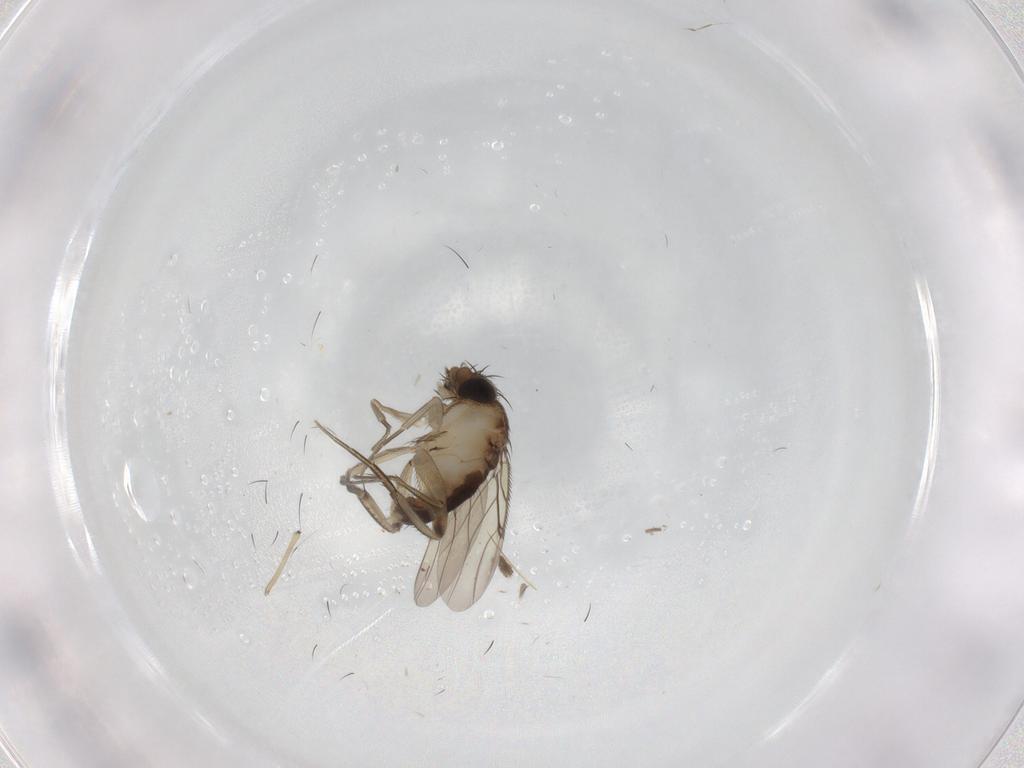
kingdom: Animalia
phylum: Arthropoda
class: Insecta
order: Diptera
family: Phoridae
